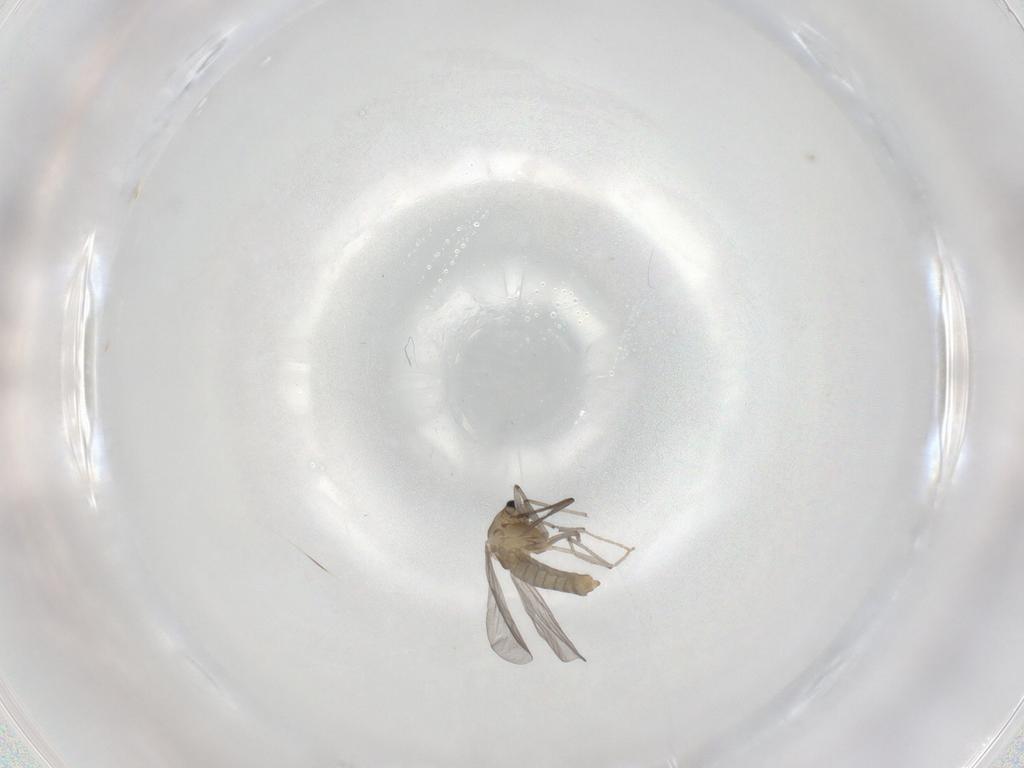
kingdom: Animalia
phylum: Arthropoda
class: Insecta
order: Diptera
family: Chironomidae
